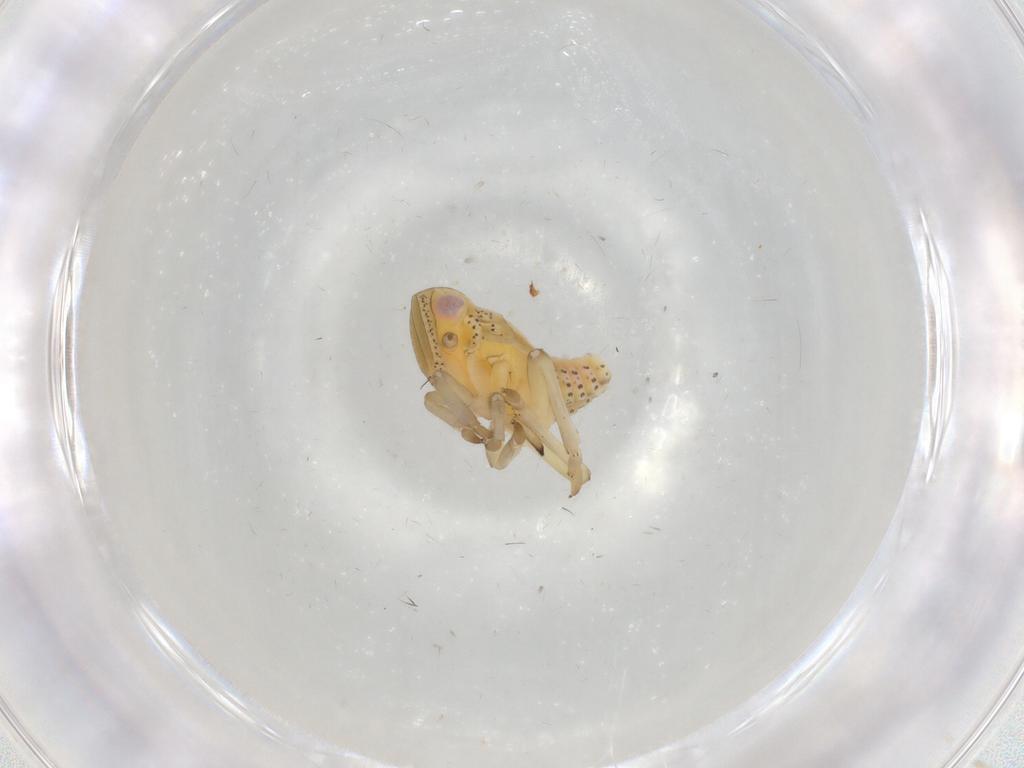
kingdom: Animalia
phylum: Arthropoda
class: Insecta
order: Hemiptera
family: Tropiduchidae
